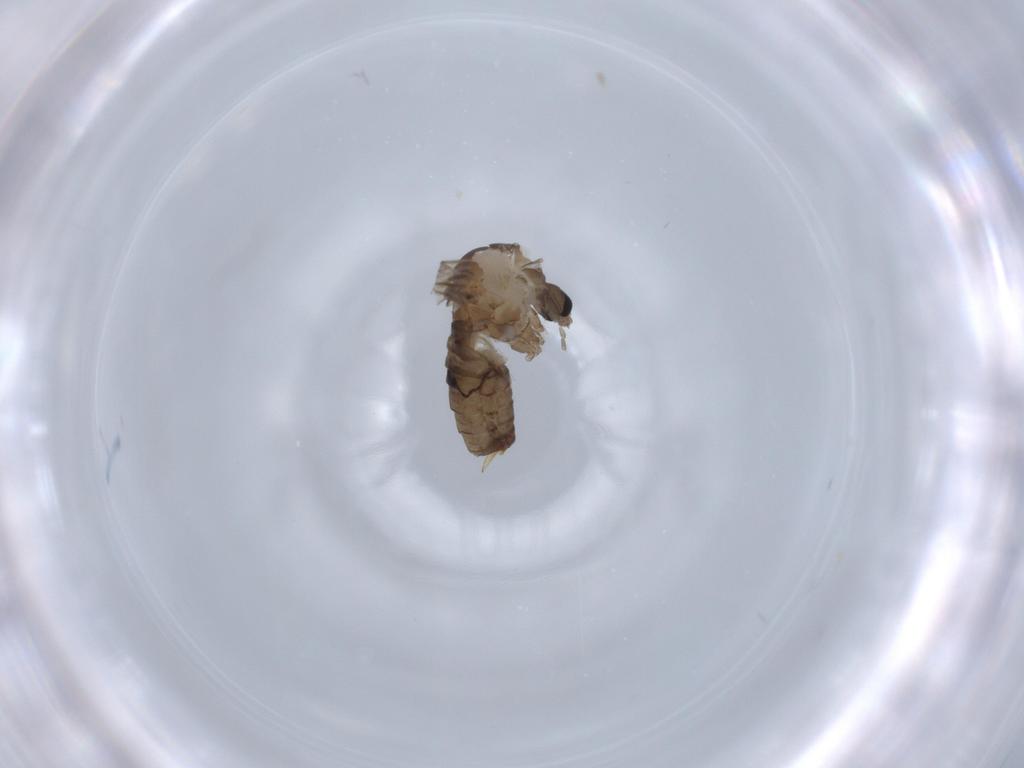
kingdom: Animalia
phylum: Arthropoda
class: Insecta
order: Diptera
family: Psychodidae
